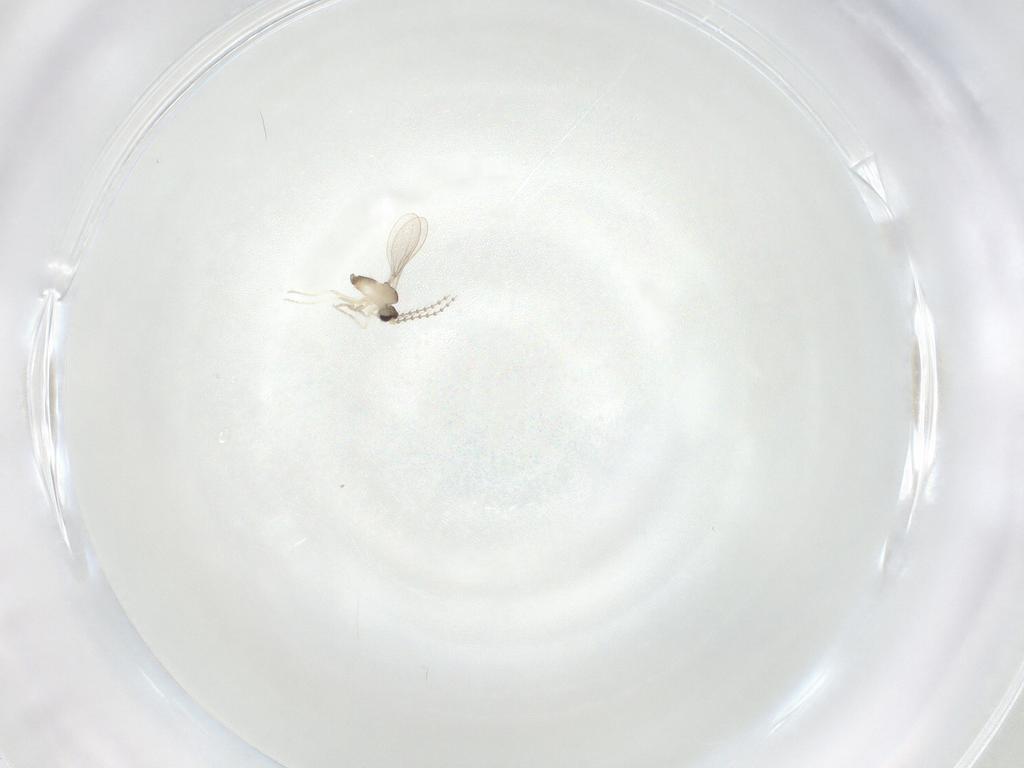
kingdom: Animalia
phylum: Arthropoda
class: Insecta
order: Diptera
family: Cecidomyiidae
